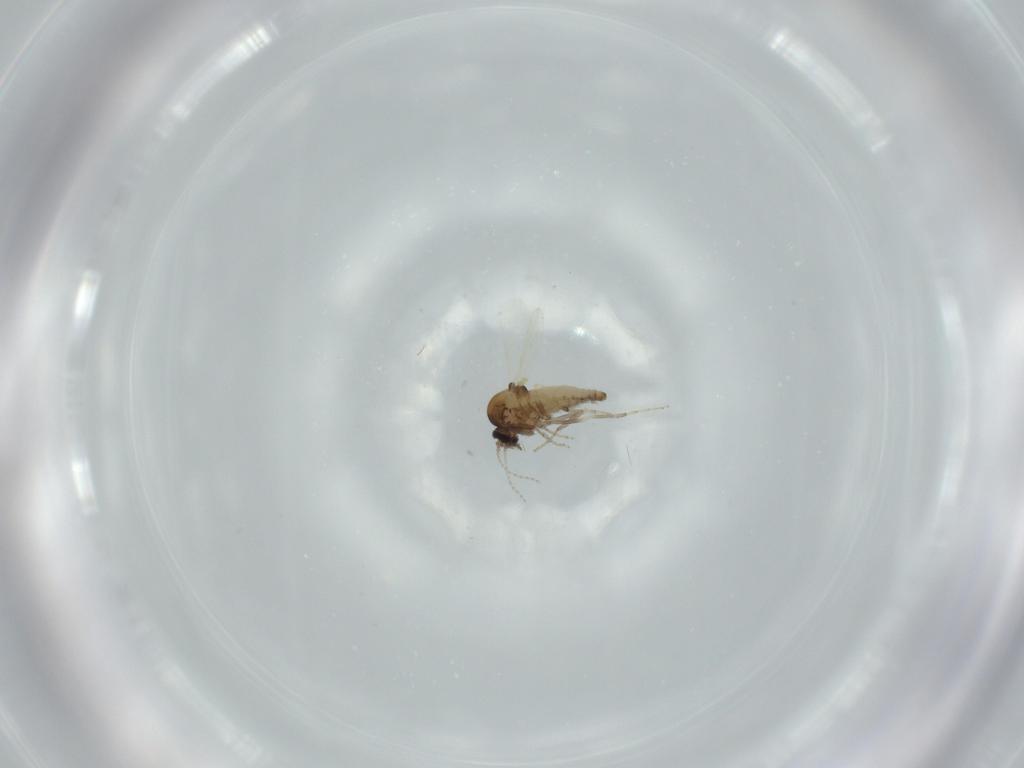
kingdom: Animalia
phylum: Arthropoda
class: Insecta
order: Diptera
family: Ceratopogonidae
